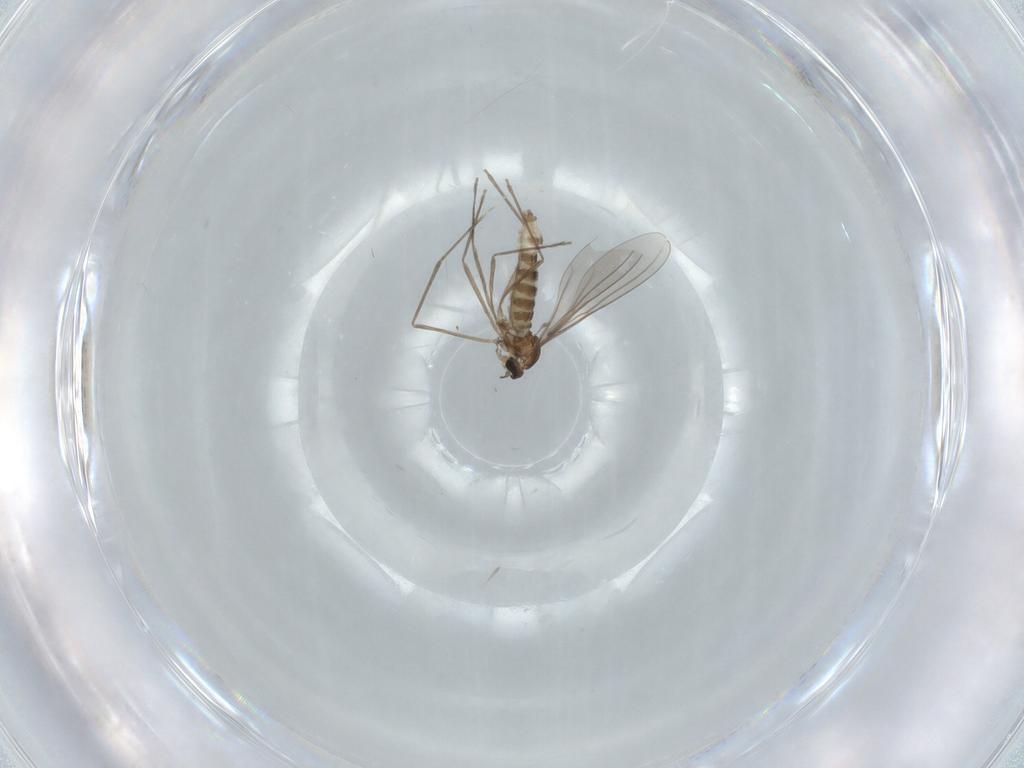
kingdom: Animalia
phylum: Arthropoda
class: Insecta
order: Diptera
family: Cecidomyiidae
